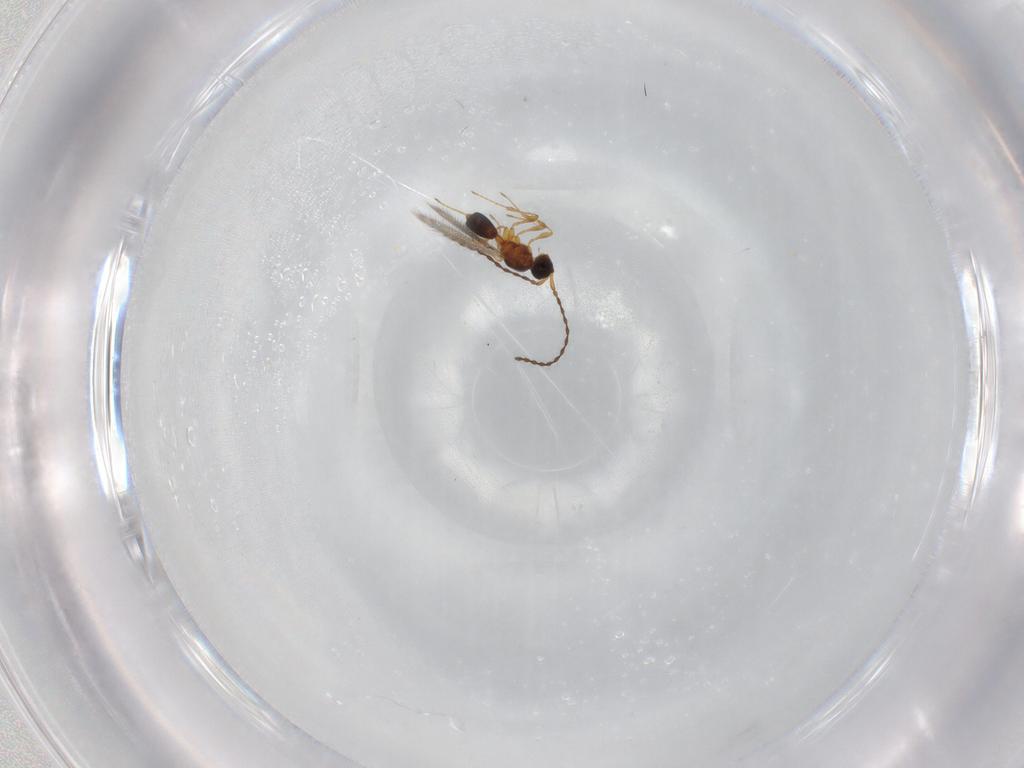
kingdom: Animalia
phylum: Arthropoda
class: Insecta
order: Hymenoptera
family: Diapriidae
